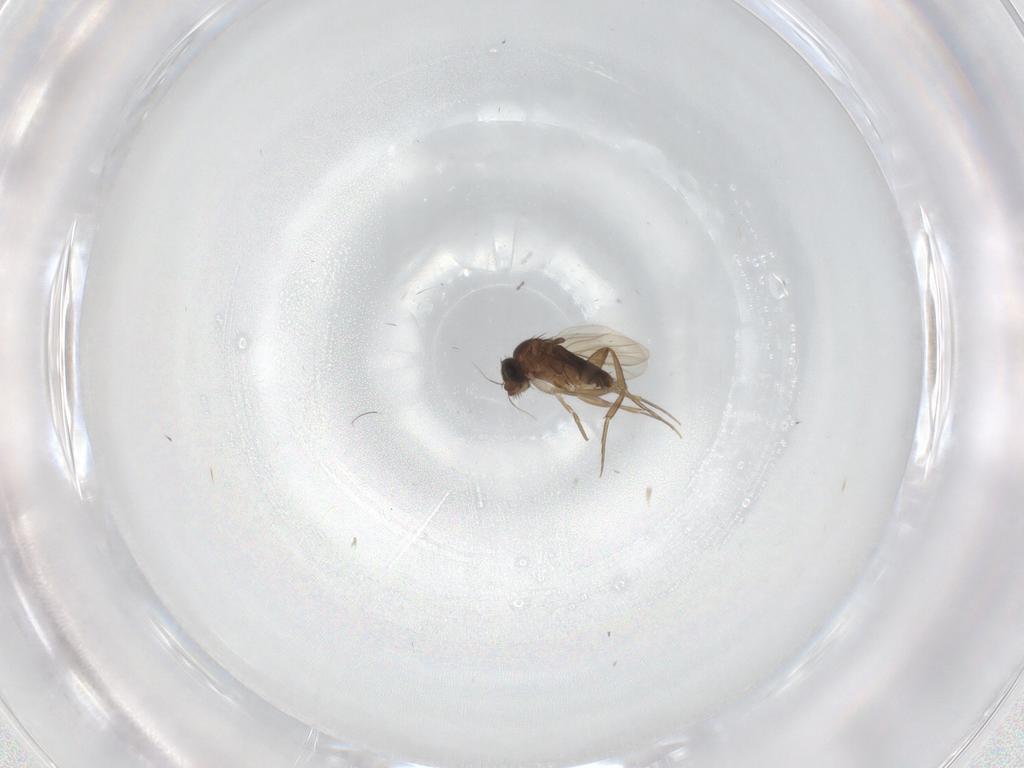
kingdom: Animalia
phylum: Arthropoda
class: Insecta
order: Diptera
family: Phoridae
